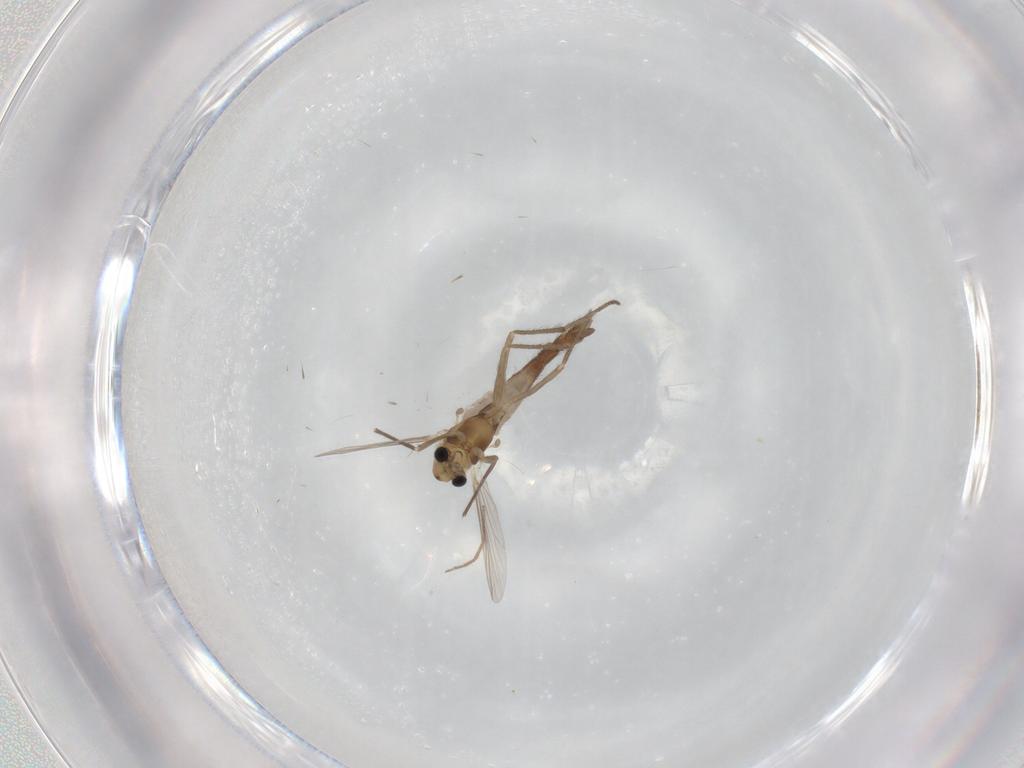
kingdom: Animalia
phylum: Arthropoda
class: Insecta
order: Diptera
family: Chironomidae
